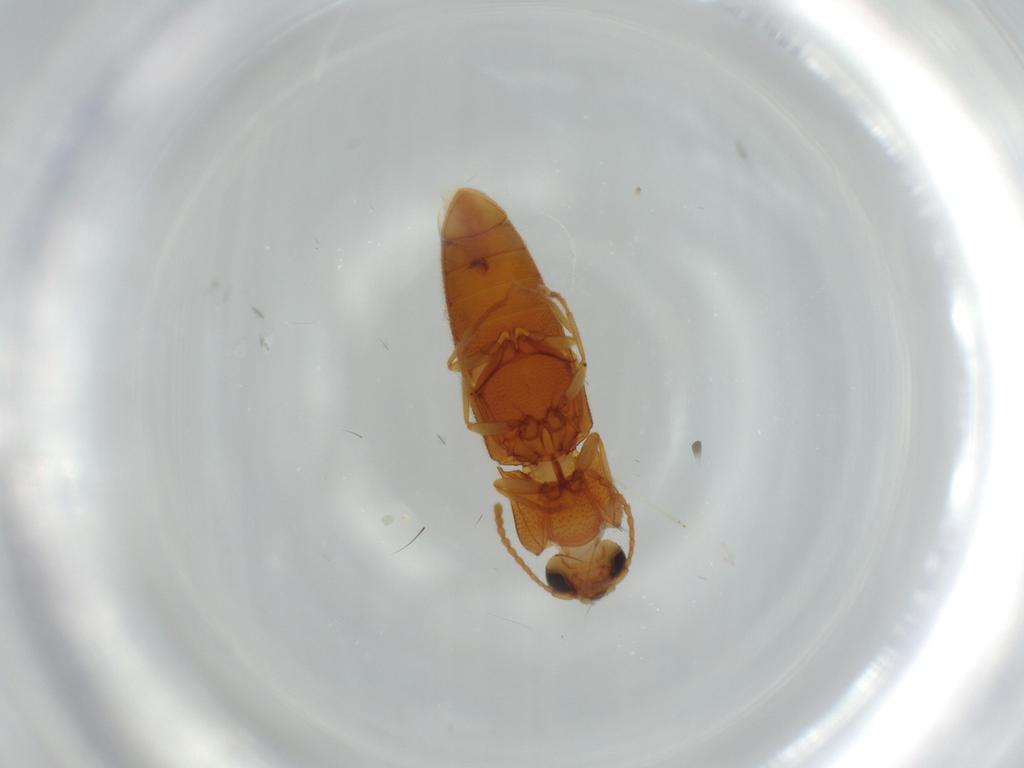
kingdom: Animalia
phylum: Arthropoda
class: Insecta
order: Coleoptera
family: Elateridae
